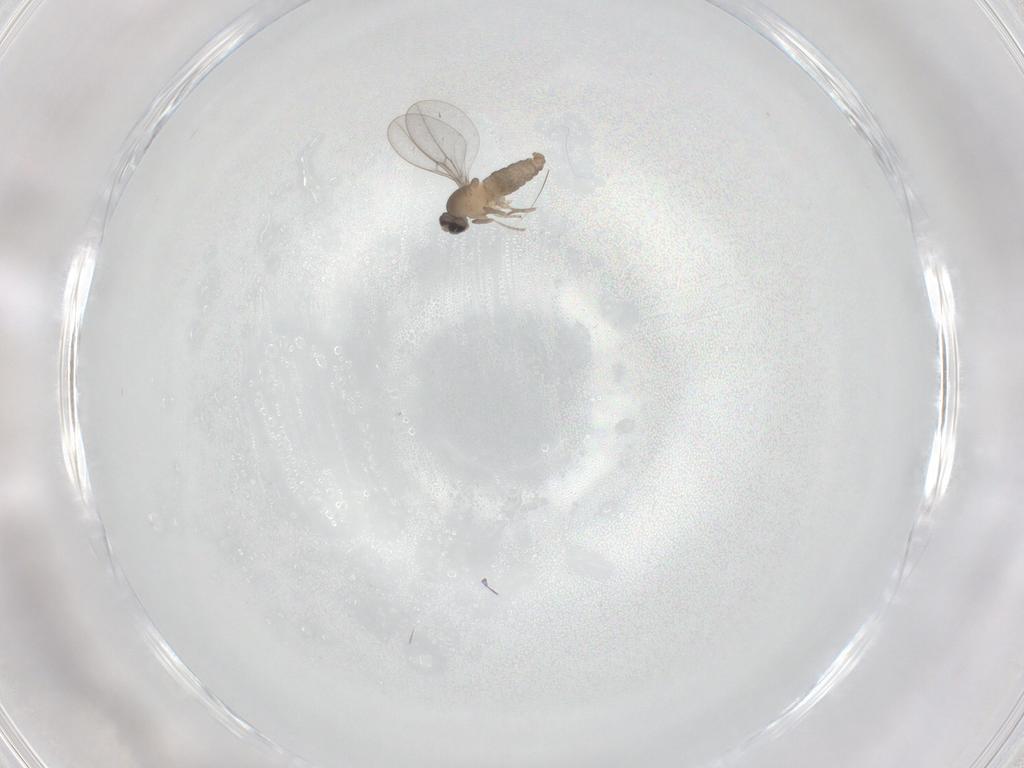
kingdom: Animalia
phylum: Arthropoda
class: Insecta
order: Diptera
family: Cecidomyiidae
